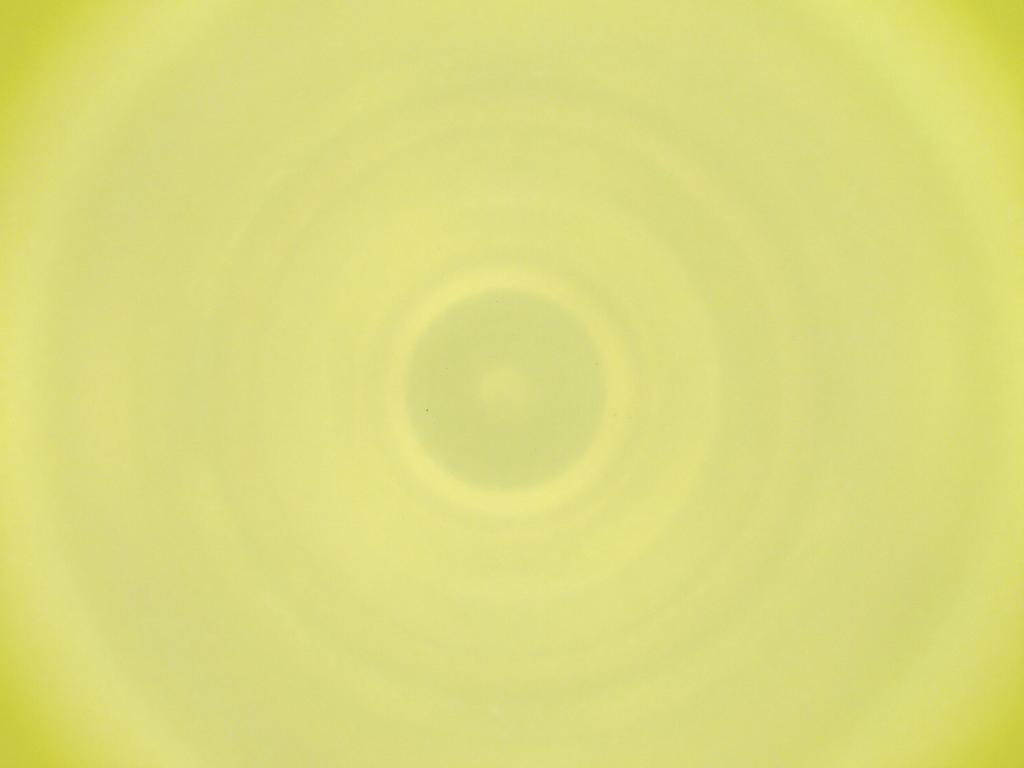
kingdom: Animalia
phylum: Arthropoda
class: Insecta
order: Diptera
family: Cecidomyiidae
